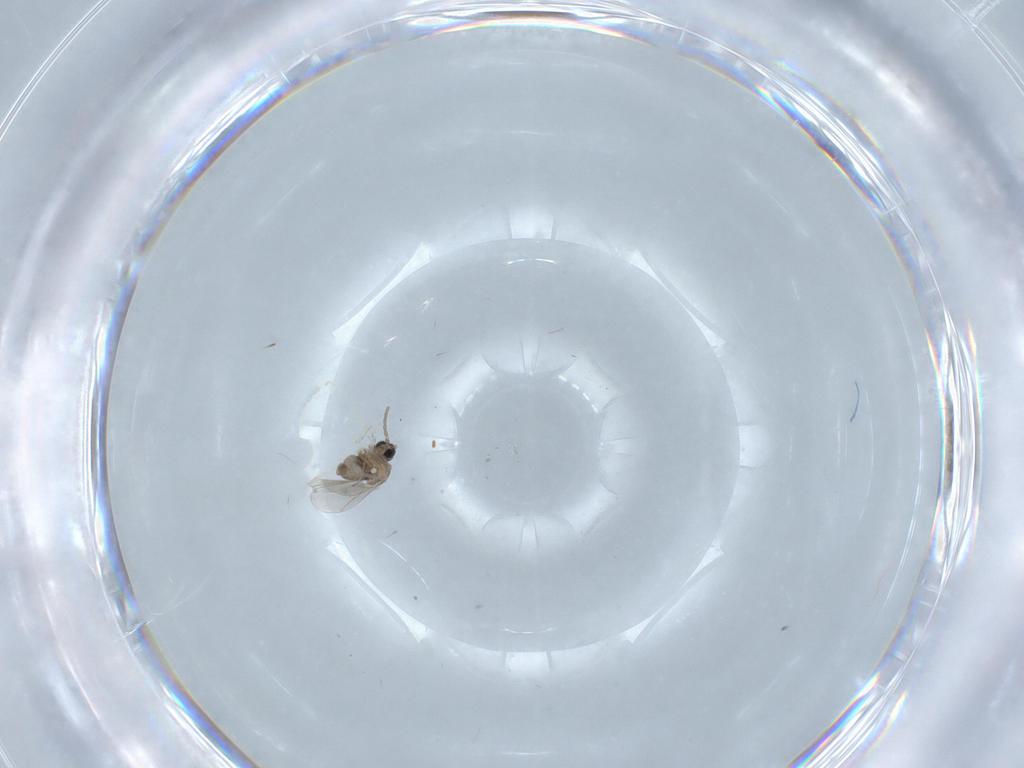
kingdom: Animalia
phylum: Arthropoda
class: Insecta
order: Diptera
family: Cecidomyiidae
